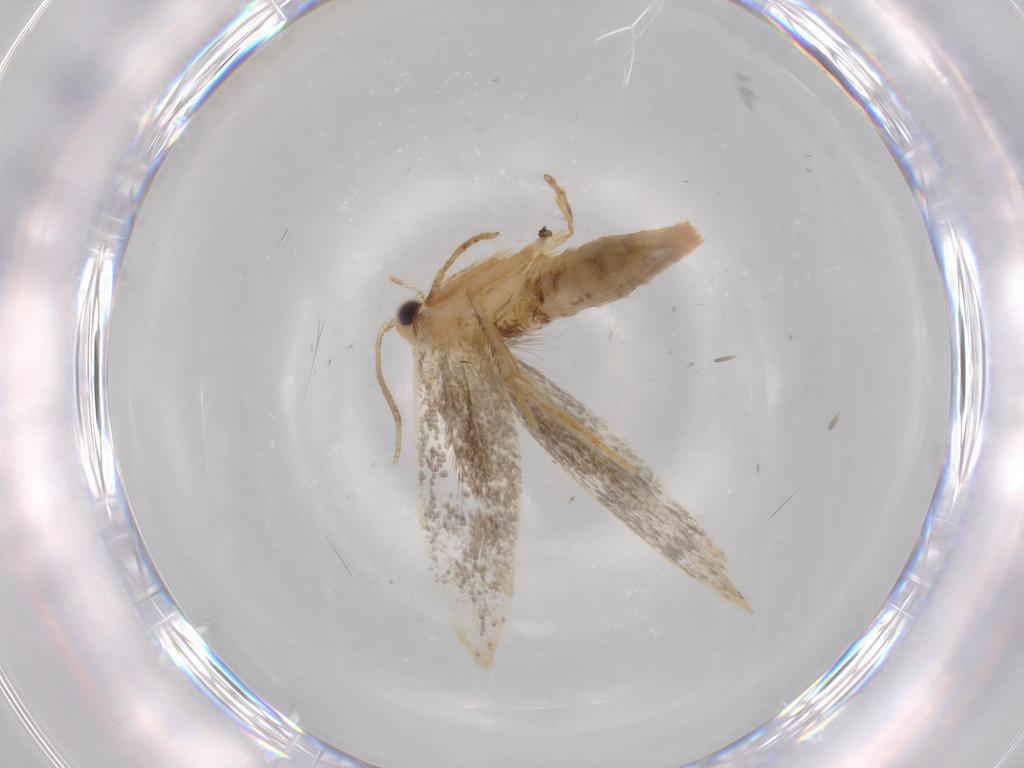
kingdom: Animalia
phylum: Arthropoda
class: Insecta
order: Lepidoptera
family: Tineidae
